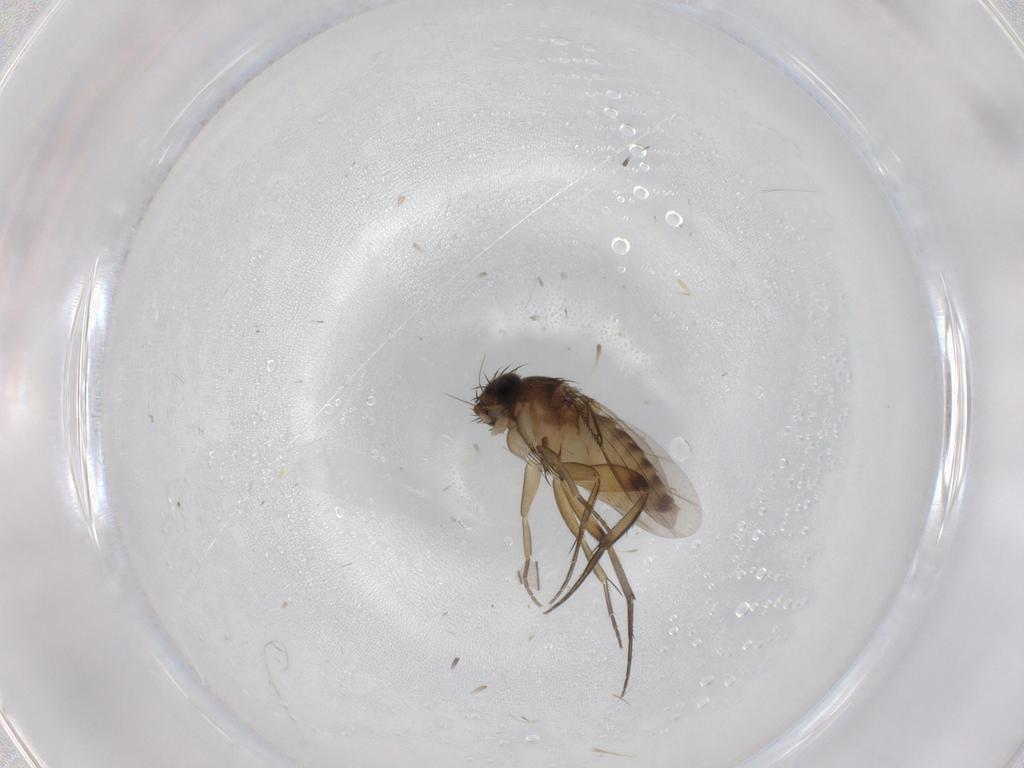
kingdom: Animalia
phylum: Arthropoda
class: Insecta
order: Diptera
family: Phoridae
